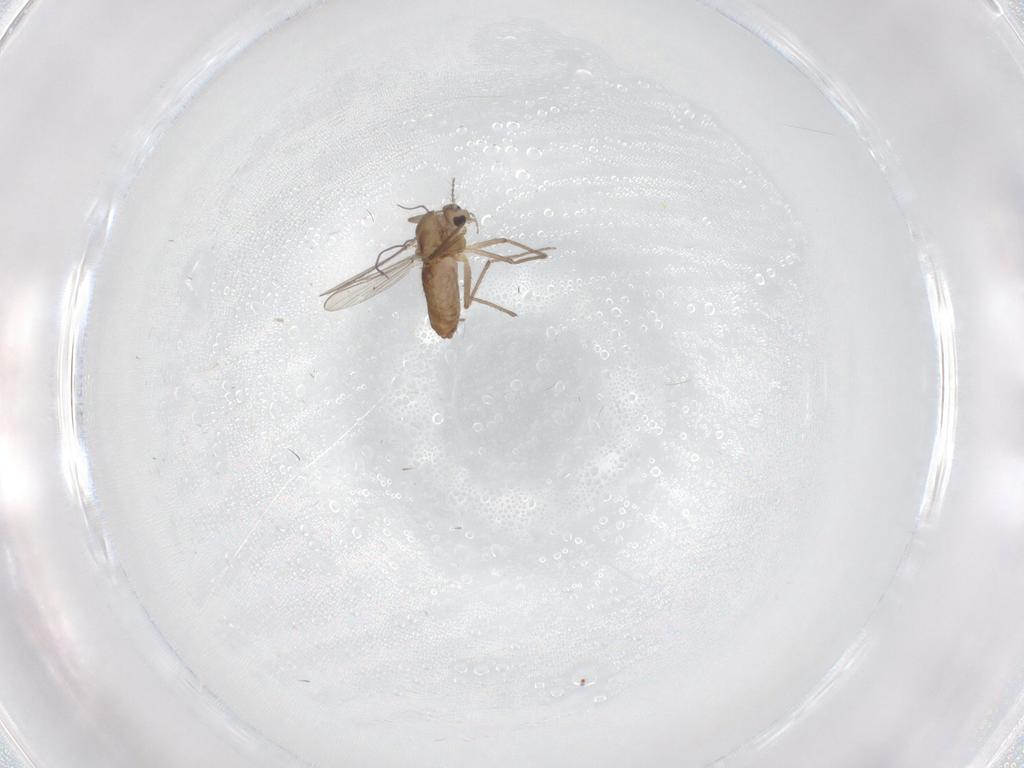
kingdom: Animalia
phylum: Arthropoda
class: Insecta
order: Diptera
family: Chironomidae
